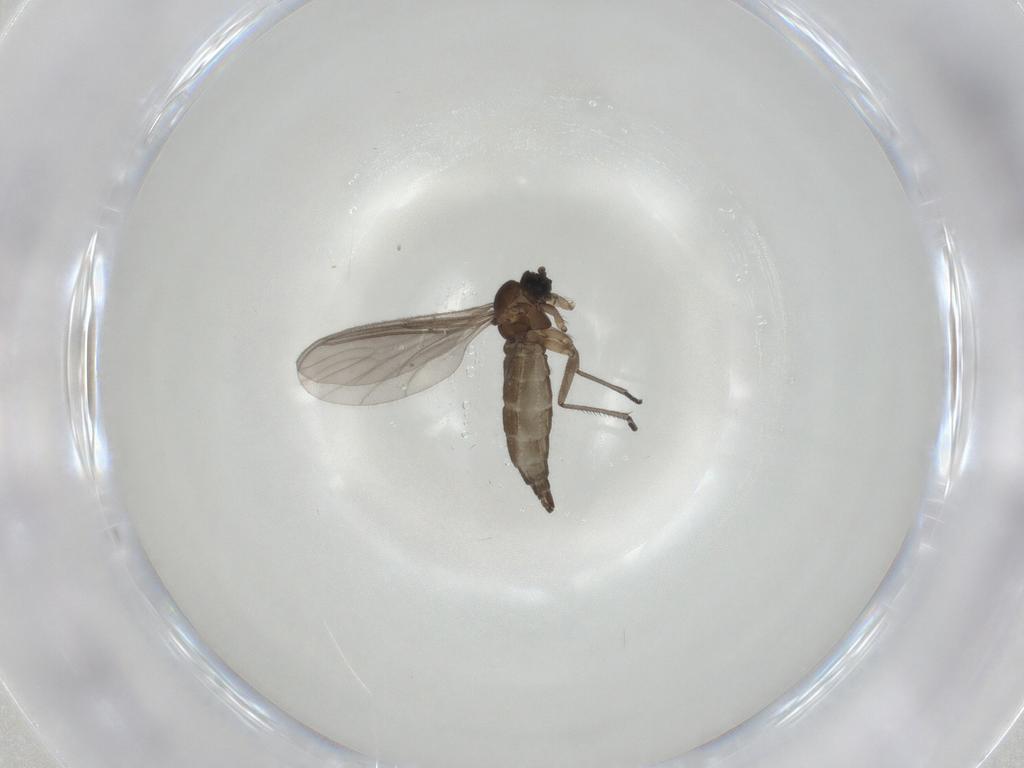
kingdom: Animalia
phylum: Arthropoda
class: Insecta
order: Diptera
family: Sciaridae
